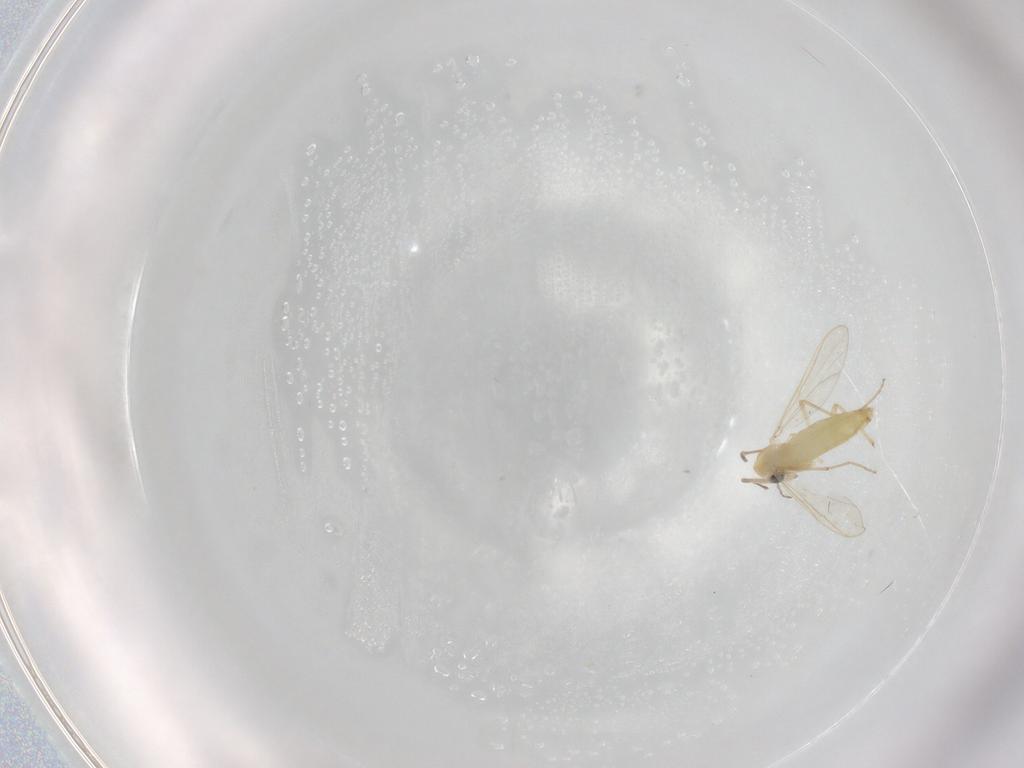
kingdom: Animalia
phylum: Arthropoda
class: Insecta
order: Diptera
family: Chironomidae
